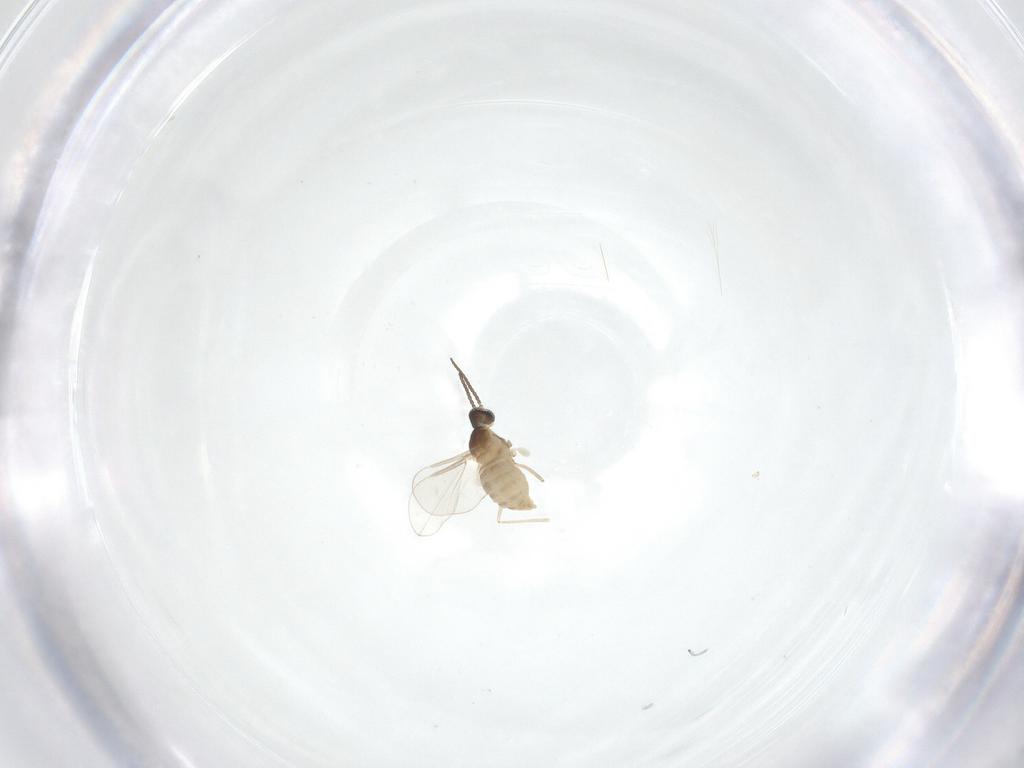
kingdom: Animalia
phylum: Arthropoda
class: Insecta
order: Diptera
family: Cecidomyiidae
